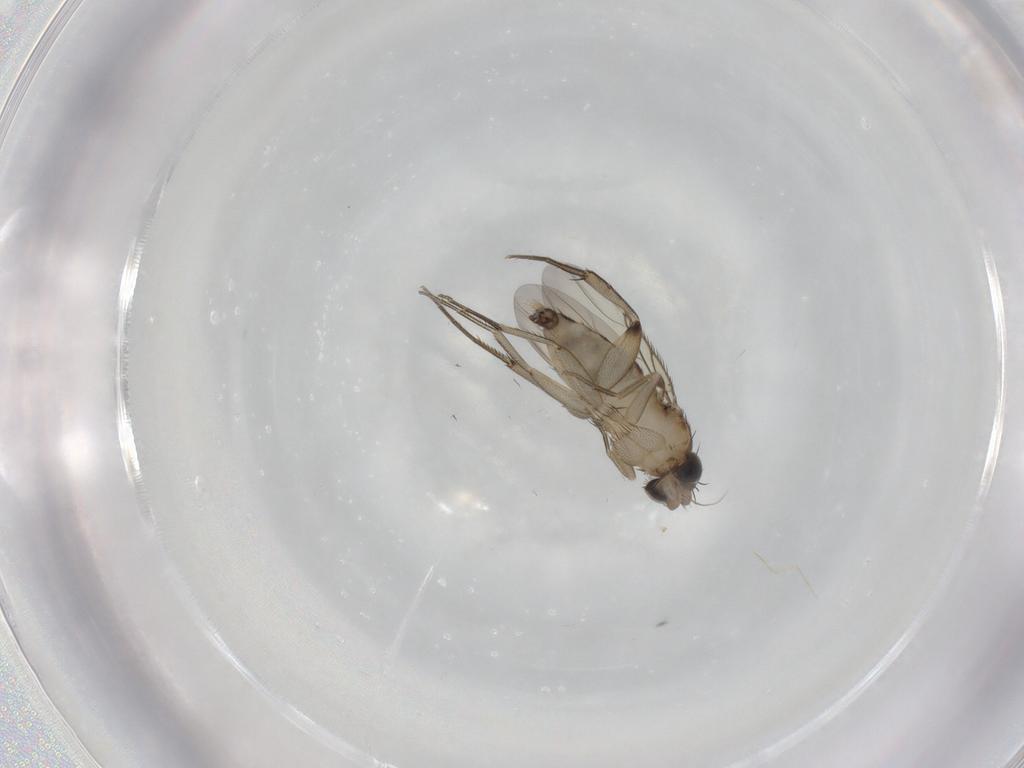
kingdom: Animalia
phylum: Arthropoda
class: Insecta
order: Diptera
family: Phoridae
